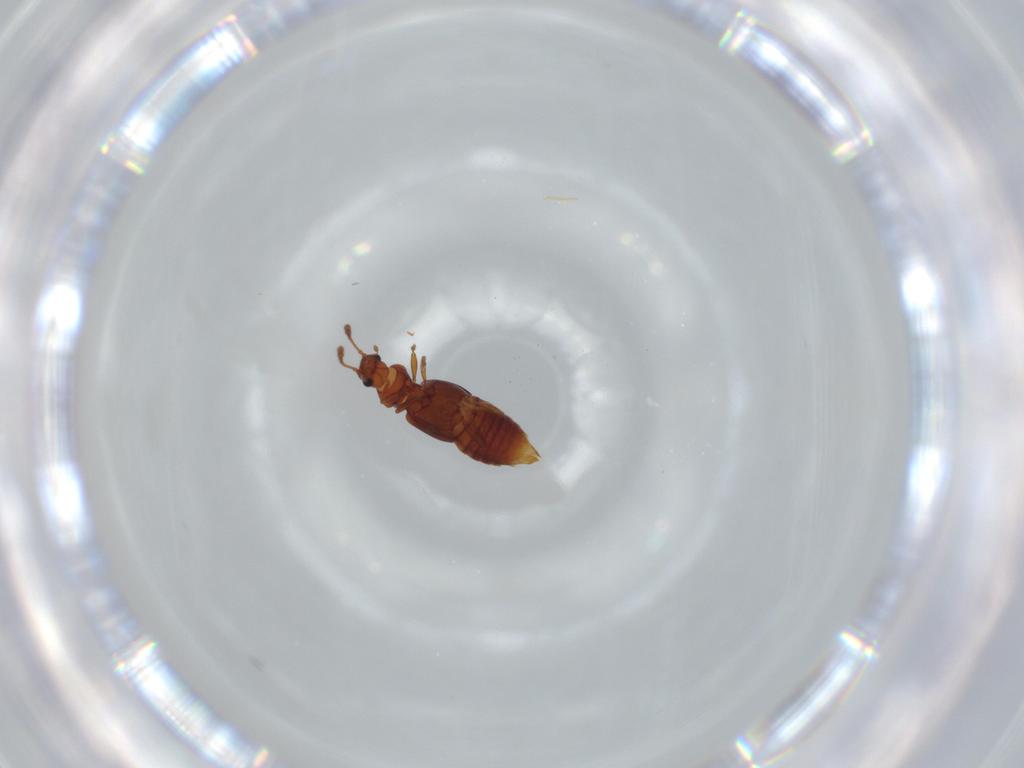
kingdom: Animalia
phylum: Arthropoda
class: Insecta
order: Coleoptera
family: Staphylinidae
